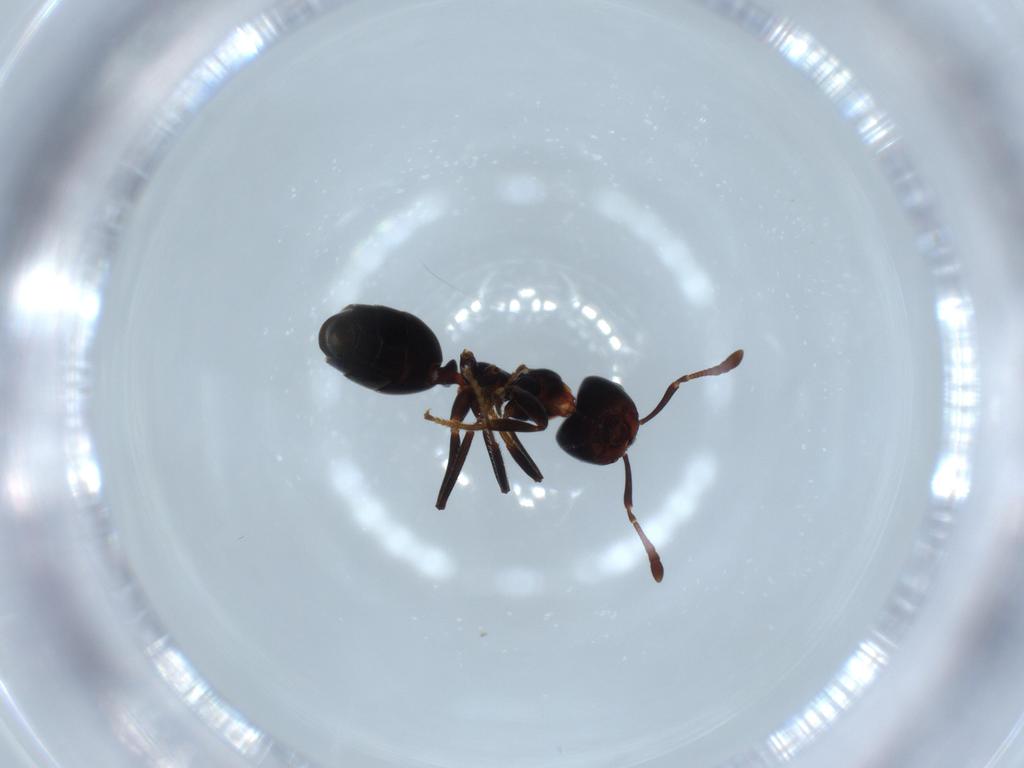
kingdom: Animalia
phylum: Arthropoda
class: Insecta
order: Hymenoptera
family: Formicidae
